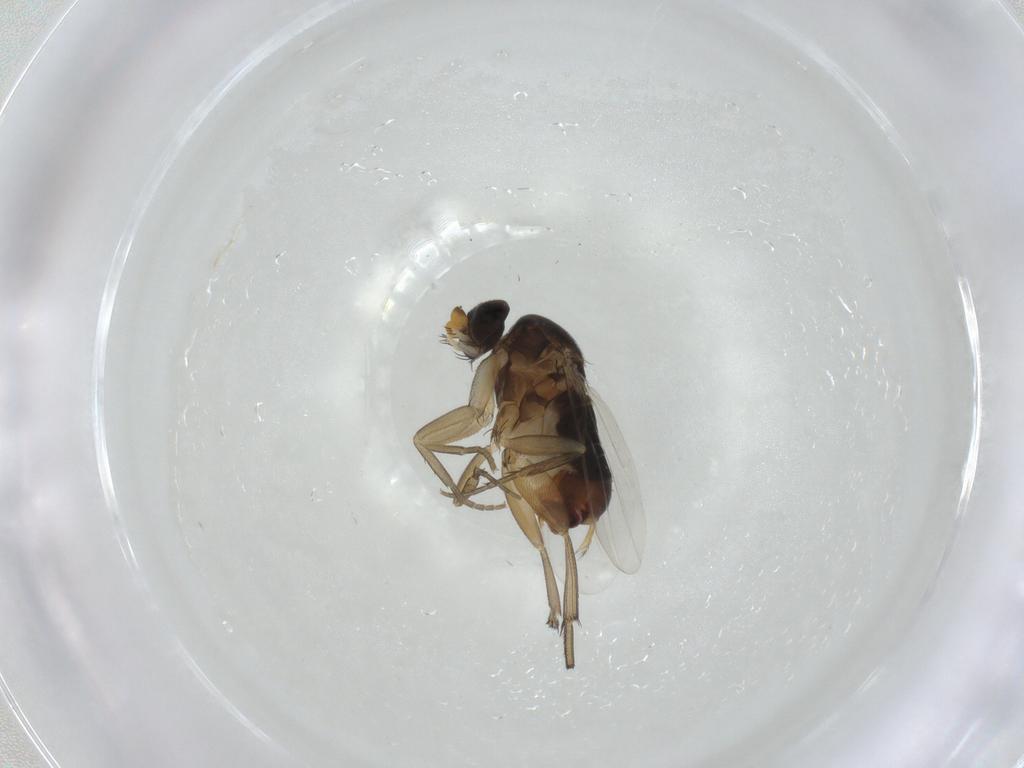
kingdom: Animalia
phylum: Arthropoda
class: Insecta
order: Diptera
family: Phoridae
